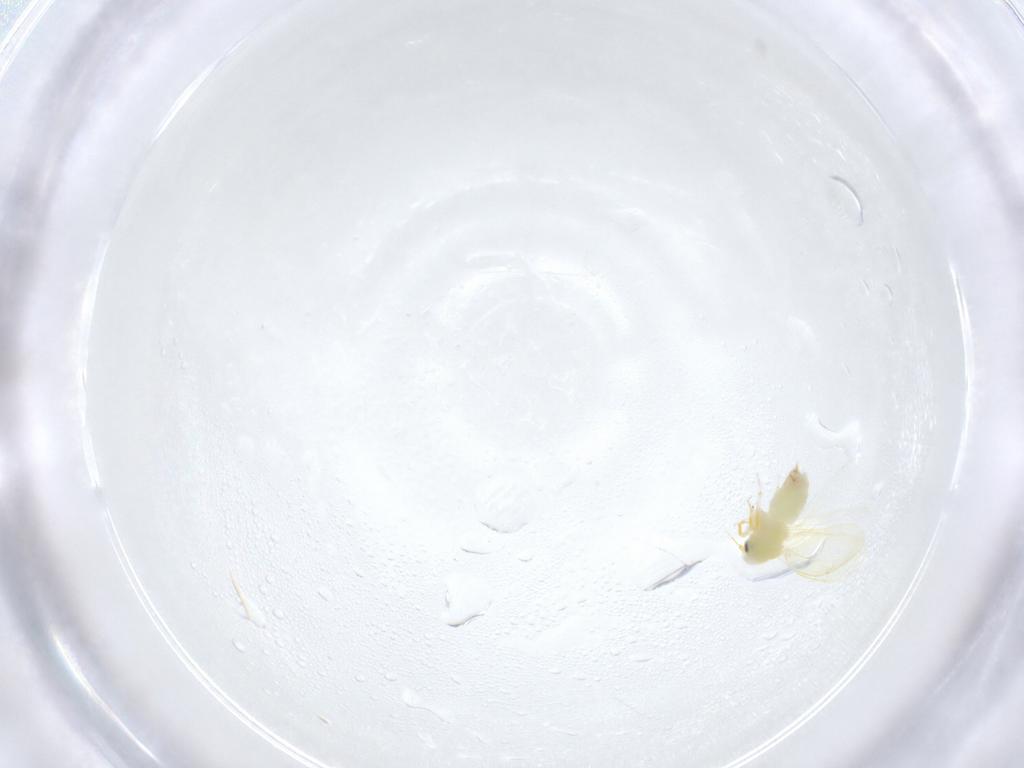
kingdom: Animalia
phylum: Arthropoda
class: Insecta
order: Hemiptera
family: Aleyrodidae
